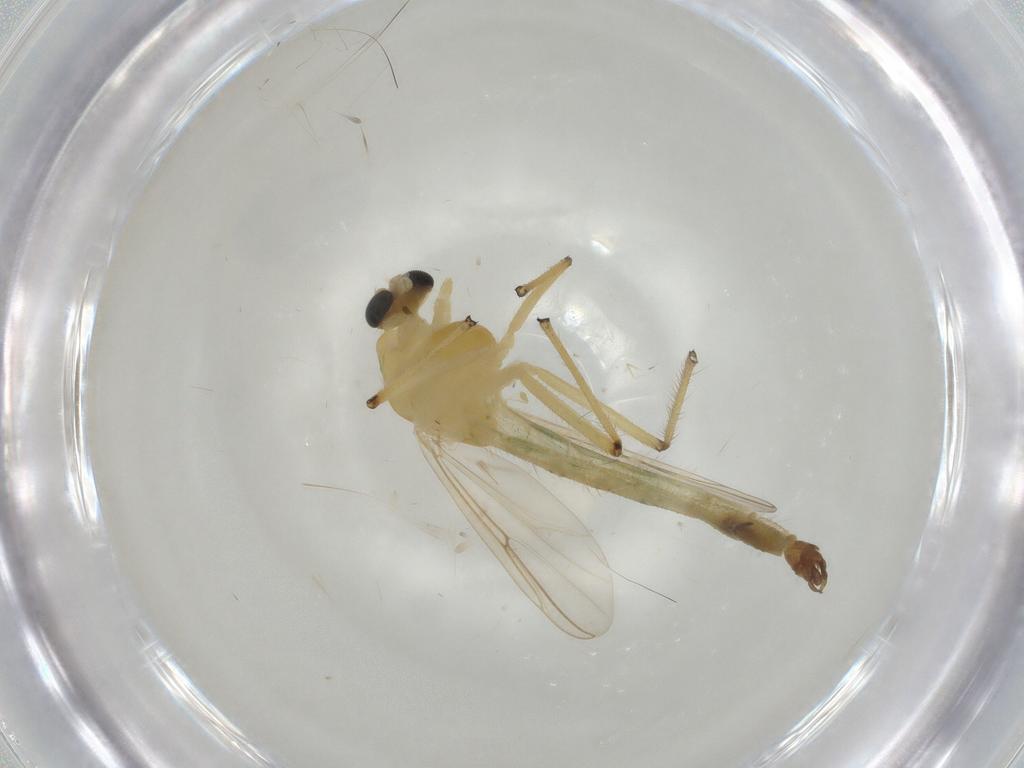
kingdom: Animalia
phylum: Arthropoda
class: Insecta
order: Diptera
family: Chironomidae
